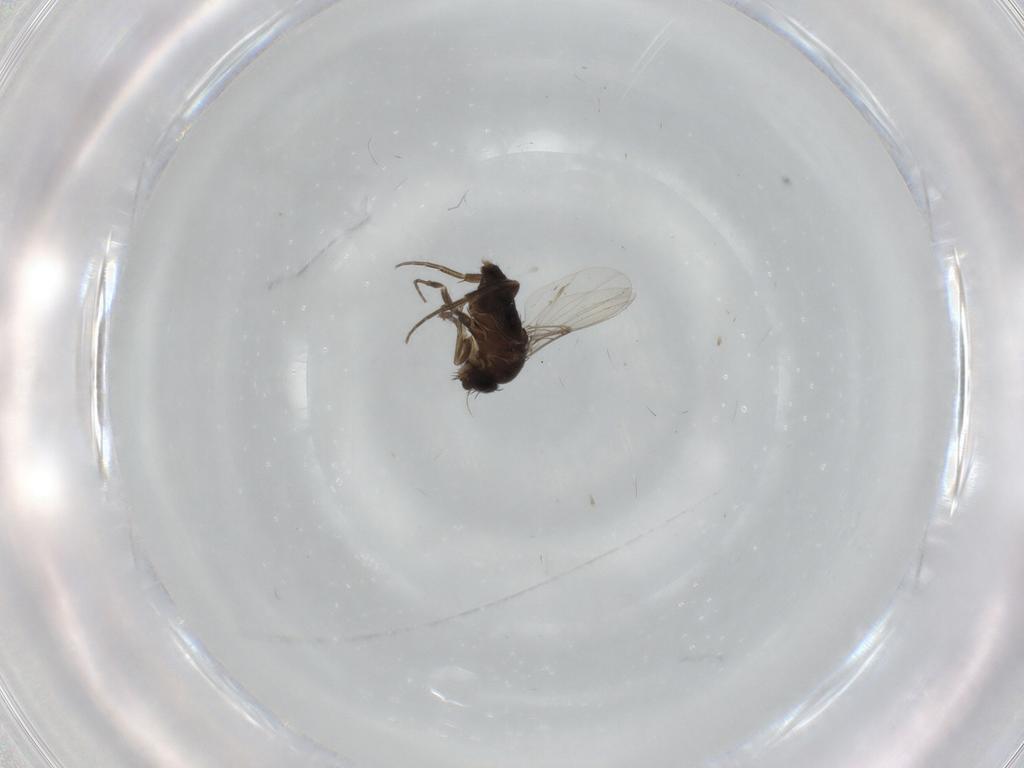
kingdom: Animalia
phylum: Arthropoda
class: Insecta
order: Diptera
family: Phoridae
